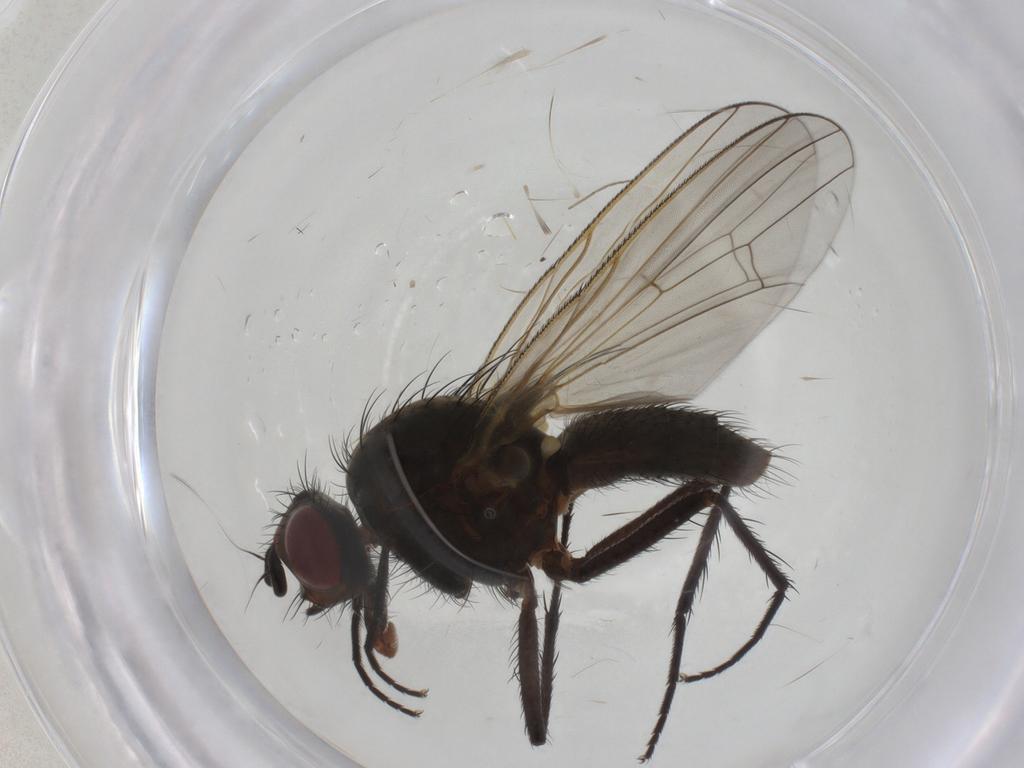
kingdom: Animalia
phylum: Arthropoda
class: Insecta
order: Diptera
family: Chironomidae
